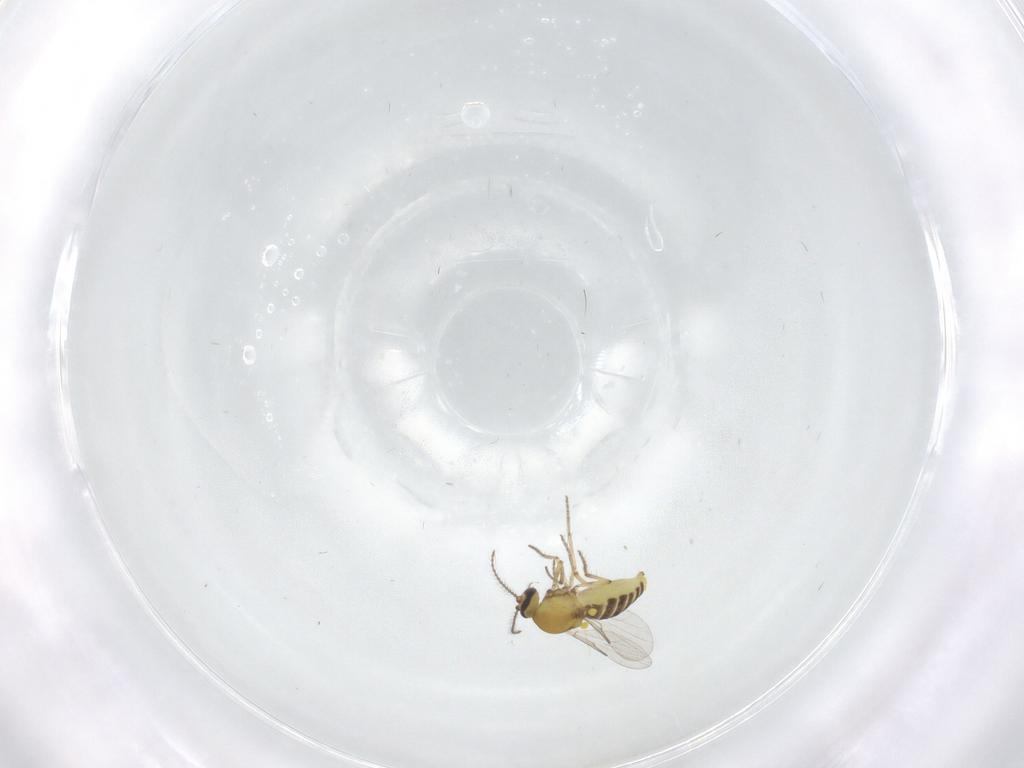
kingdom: Animalia
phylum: Arthropoda
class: Insecta
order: Diptera
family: Ceratopogonidae
